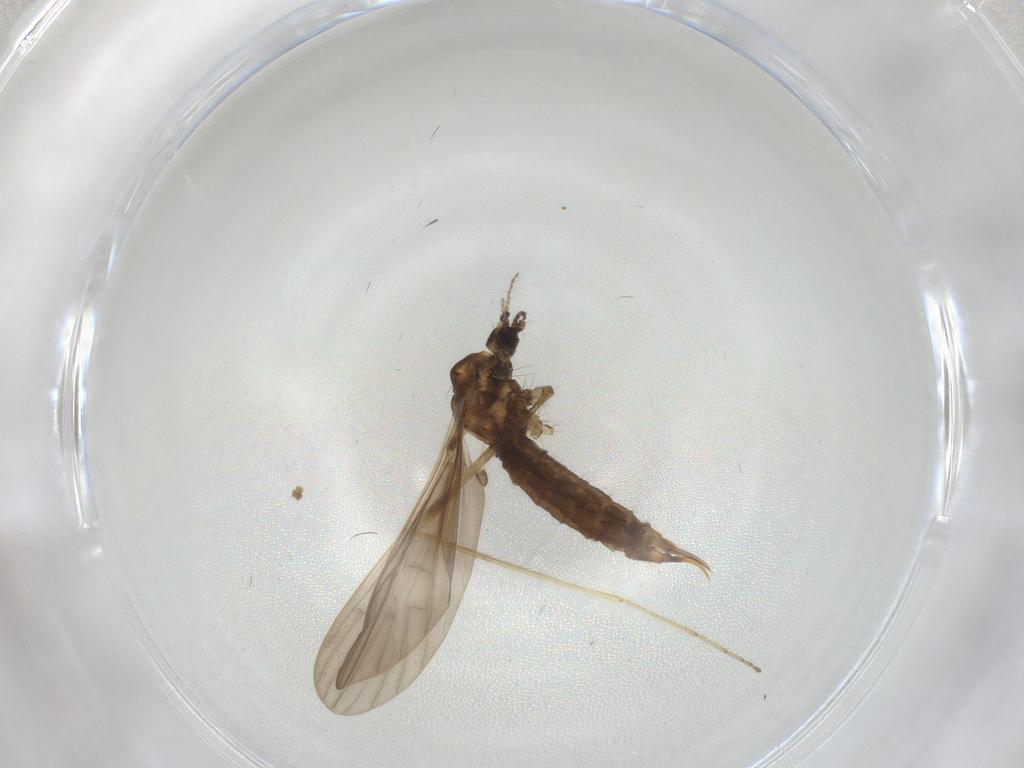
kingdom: Animalia
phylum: Arthropoda
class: Insecta
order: Diptera
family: Limoniidae
